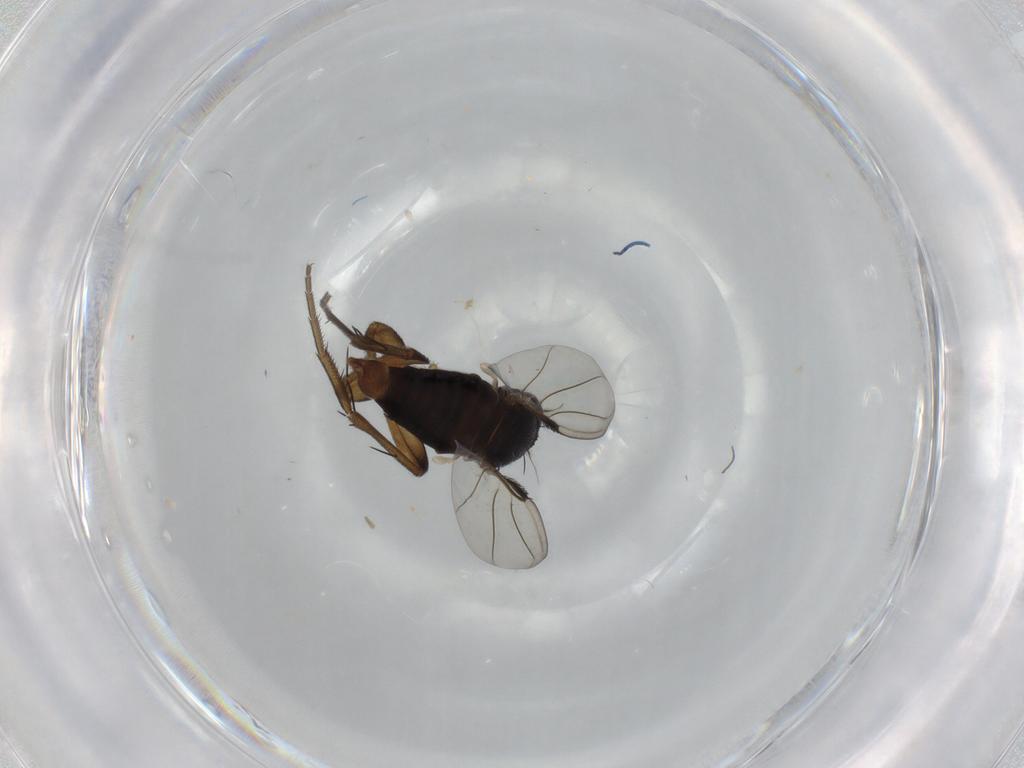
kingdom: Animalia
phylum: Arthropoda
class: Insecta
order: Diptera
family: Phoridae
